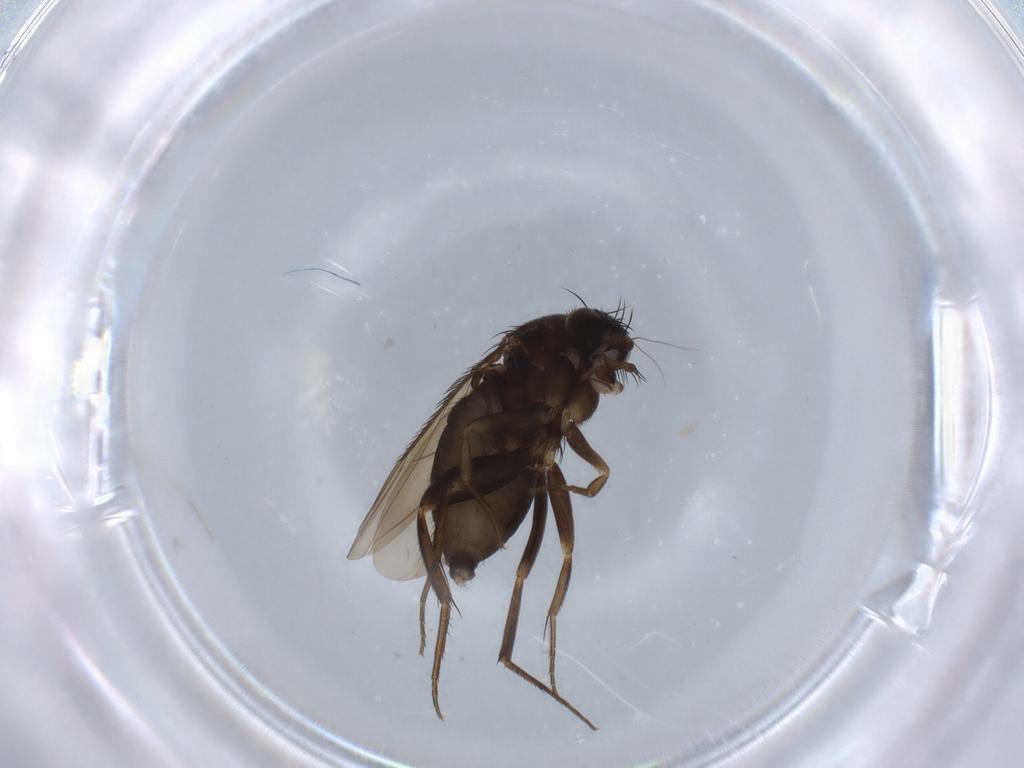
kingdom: Animalia
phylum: Arthropoda
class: Insecta
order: Diptera
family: Phoridae
